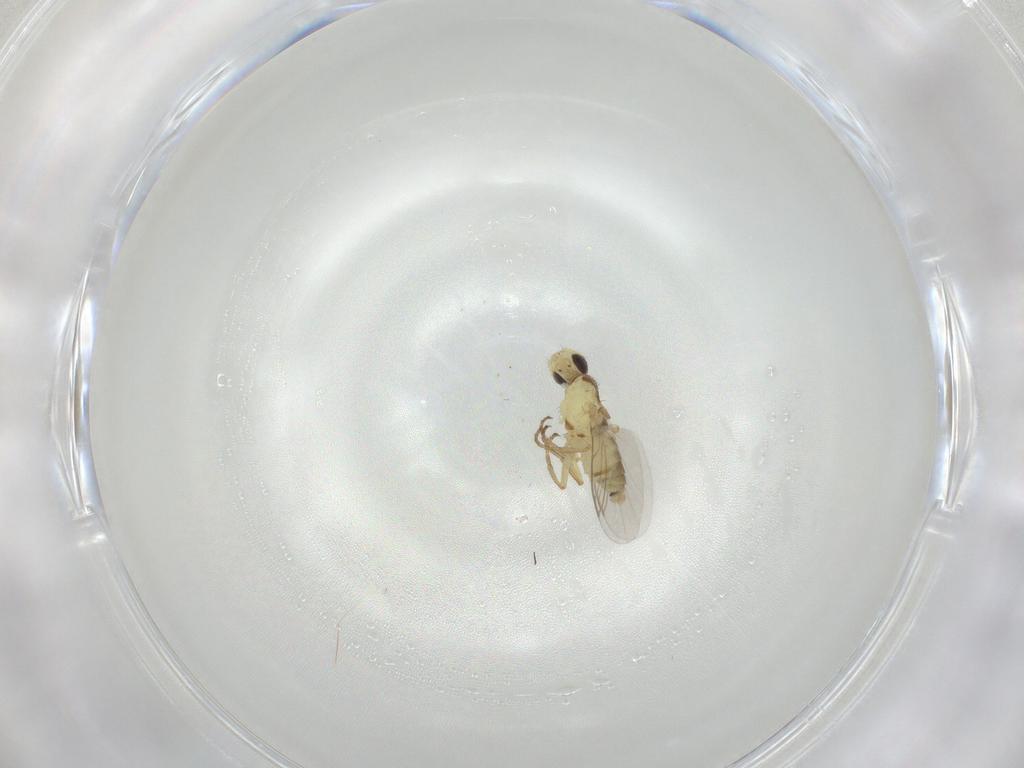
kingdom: Animalia
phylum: Arthropoda
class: Insecta
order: Diptera
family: Agromyzidae
